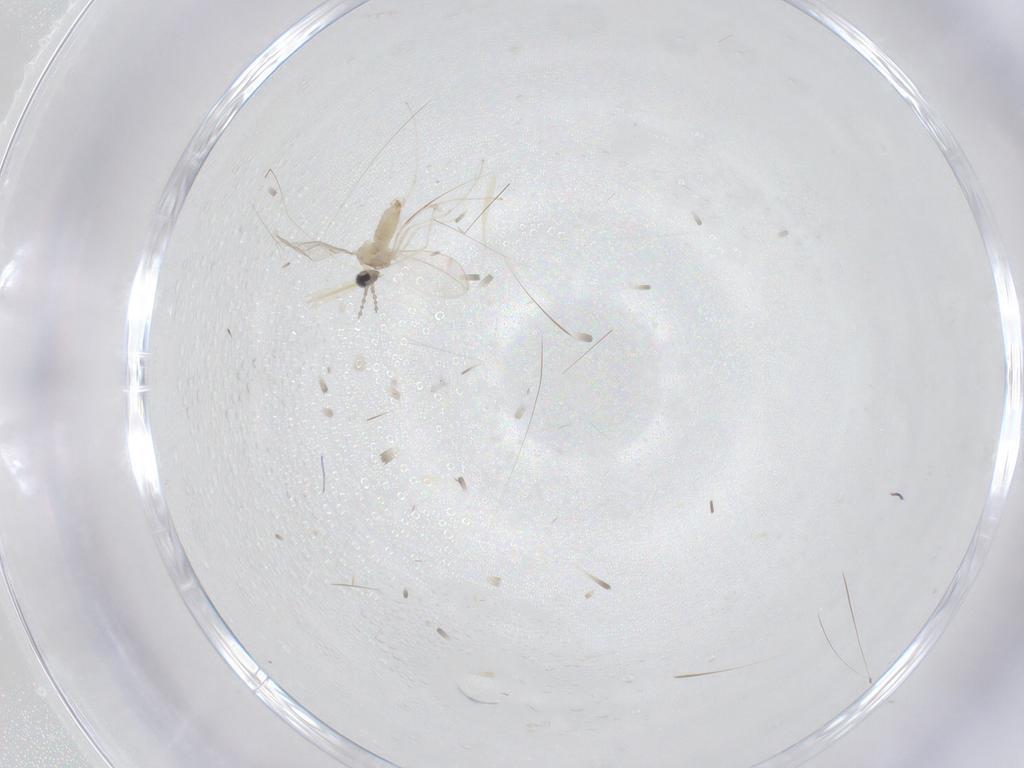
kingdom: Animalia
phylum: Arthropoda
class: Insecta
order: Diptera
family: Cecidomyiidae
